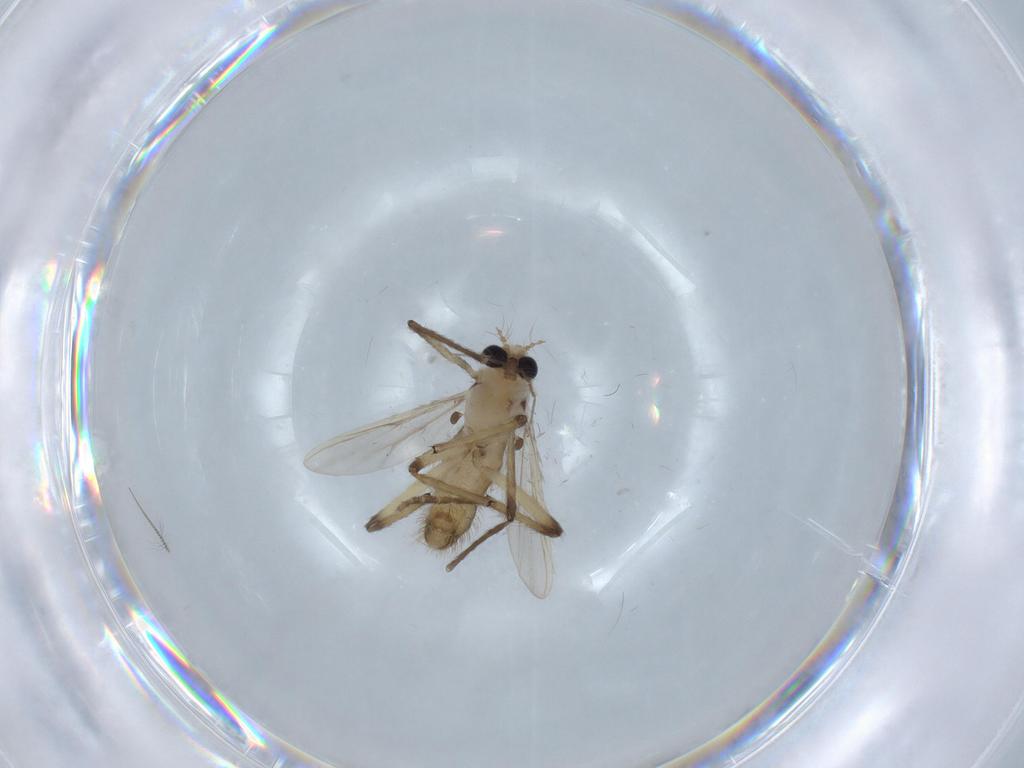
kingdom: Animalia
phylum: Arthropoda
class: Insecta
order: Diptera
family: Chironomidae
